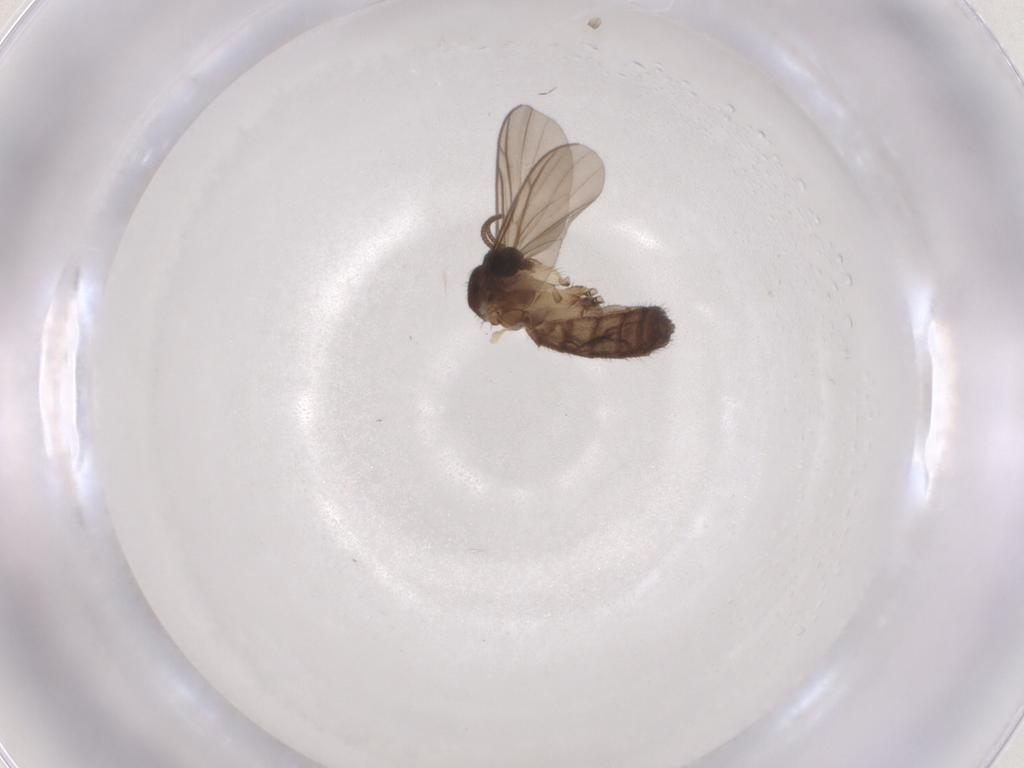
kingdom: Animalia
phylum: Arthropoda
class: Insecta
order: Diptera
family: Keroplatidae
